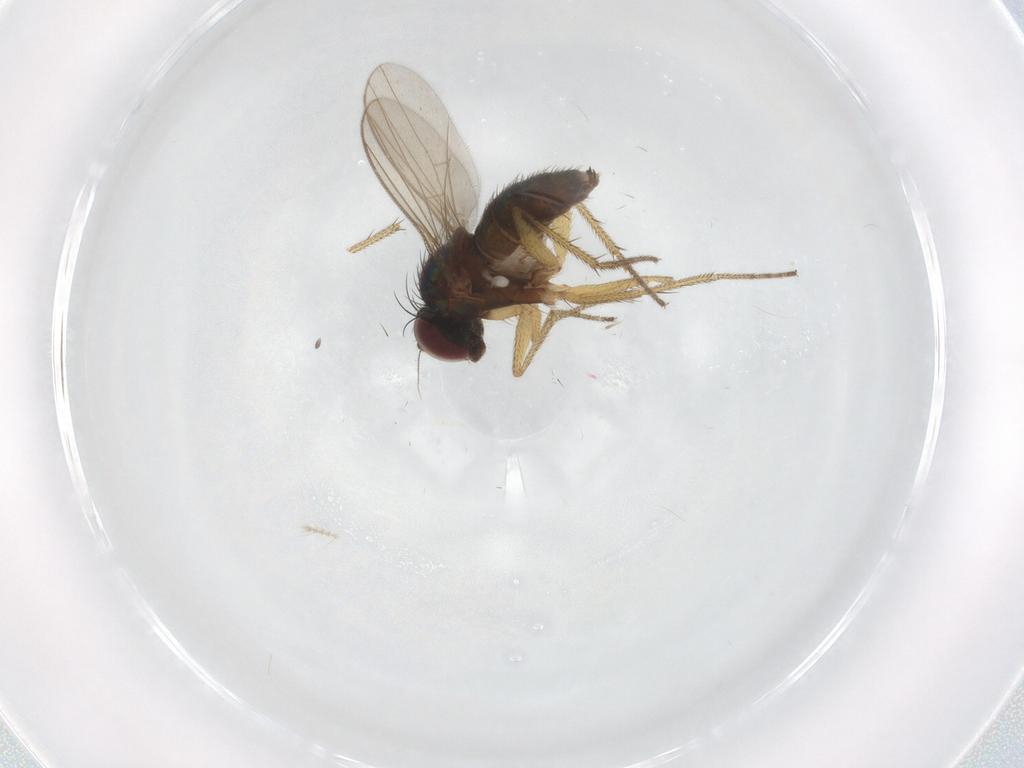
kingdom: Animalia
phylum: Arthropoda
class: Insecta
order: Diptera
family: Dolichopodidae
